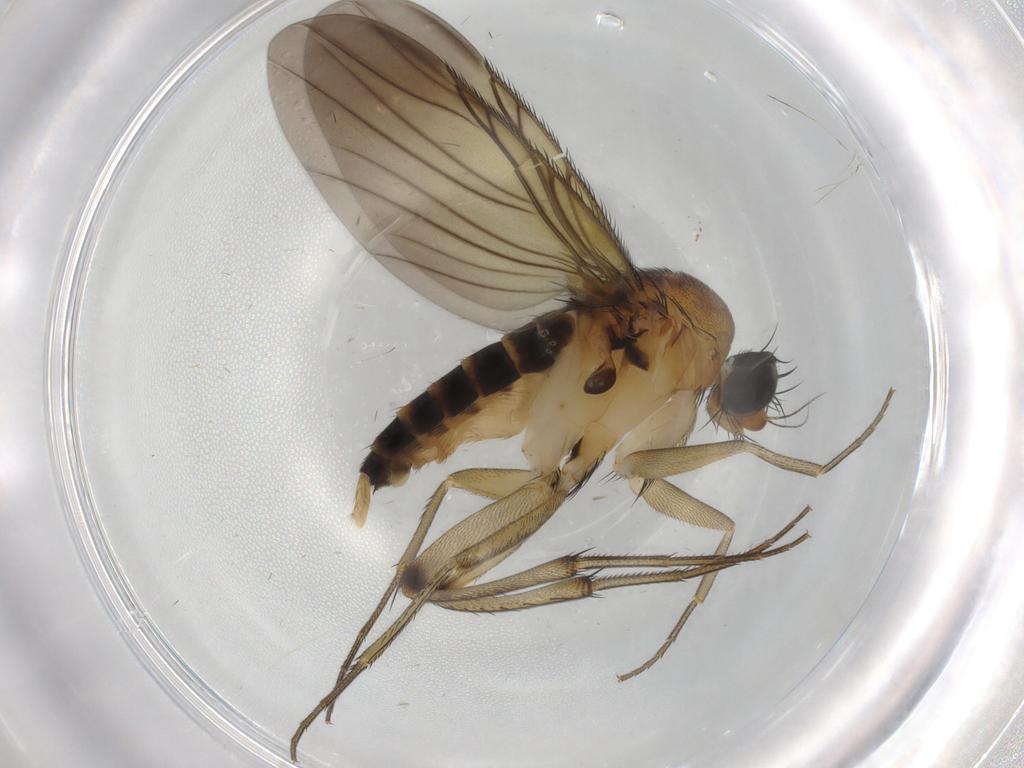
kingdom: Animalia
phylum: Arthropoda
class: Insecta
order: Diptera
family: Phoridae
